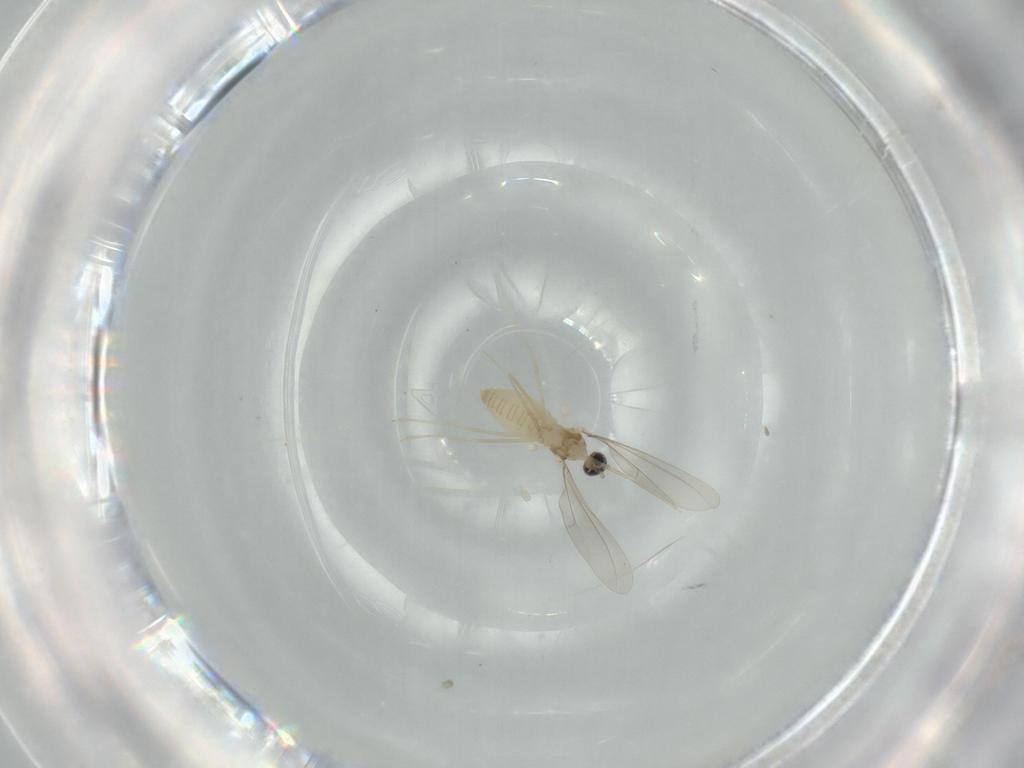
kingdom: Animalia
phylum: Arthropoda
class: Insecta
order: Diptera
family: Cecidomyiidae
